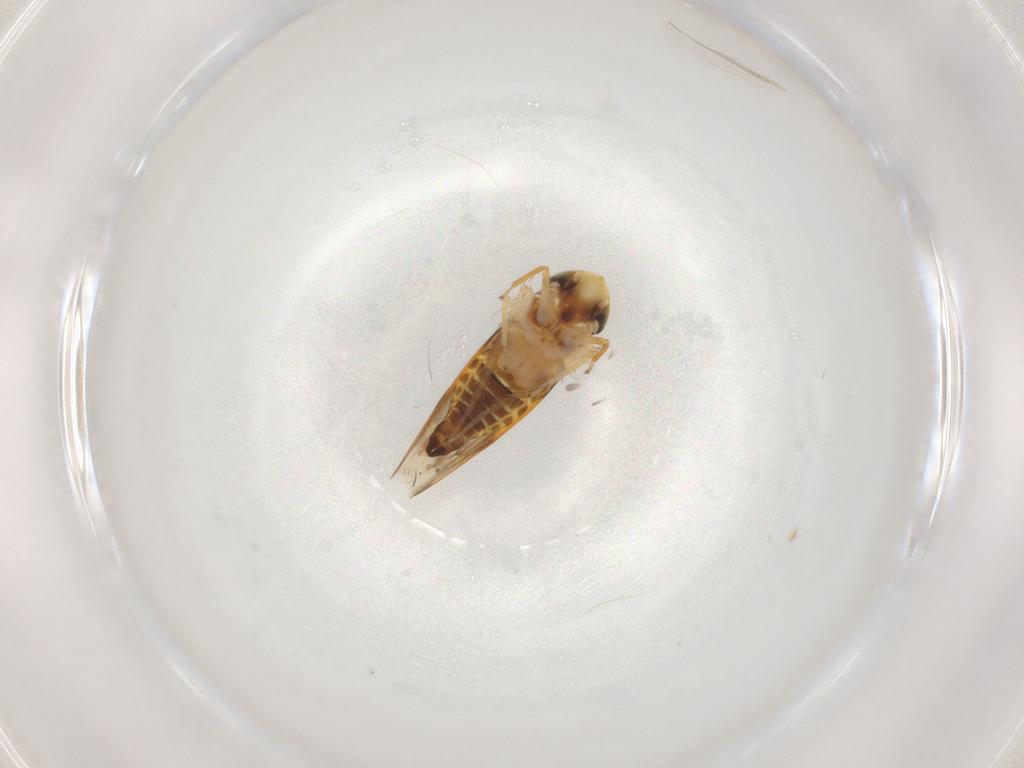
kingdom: Animalia
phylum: Arthropoda
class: Insecta
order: Hemiptera
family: Cicadellidae
